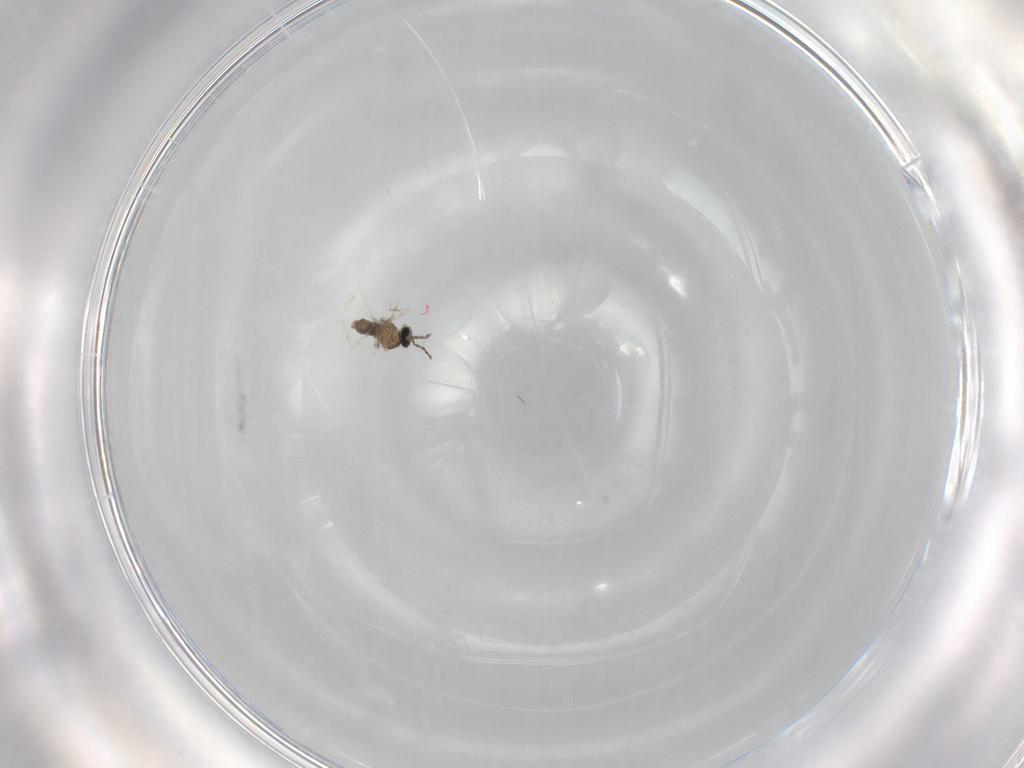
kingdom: Animalia
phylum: Arthropoda
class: Insecta
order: Diptera
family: Cecidomyiidae
